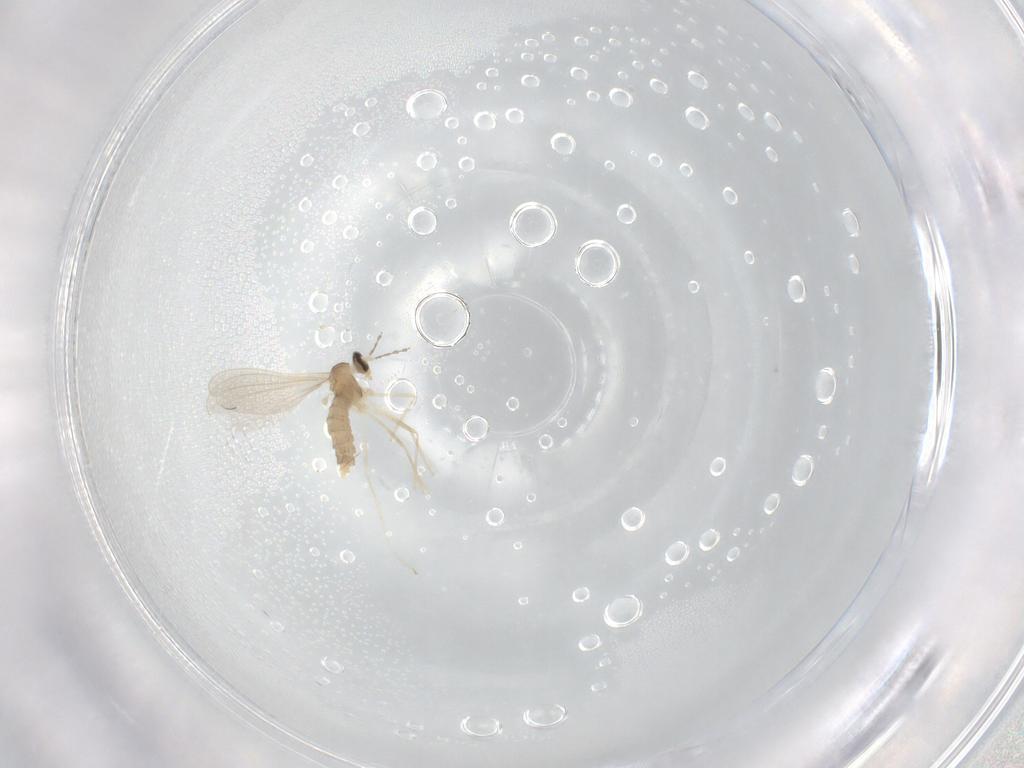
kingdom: Animalia
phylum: Arthropoda
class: Insecta
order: Diptera
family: Cecidomyiidae
